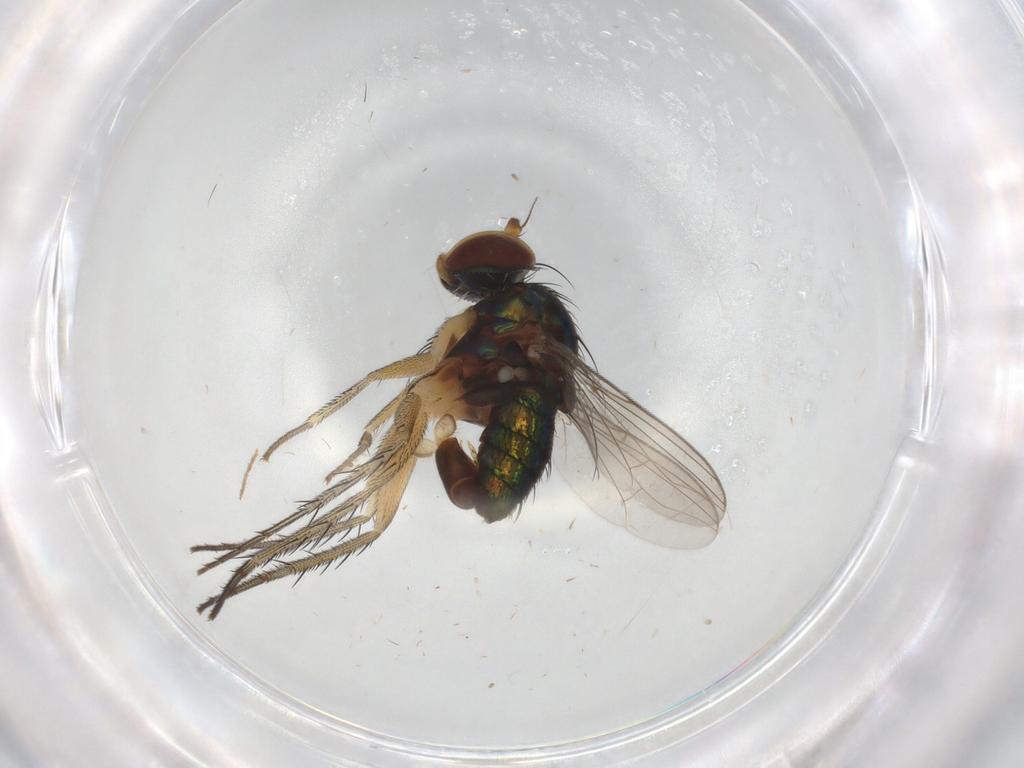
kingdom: Animalia
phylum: Arthropoda
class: Insecta
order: Diptera
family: Dolichopodidae
